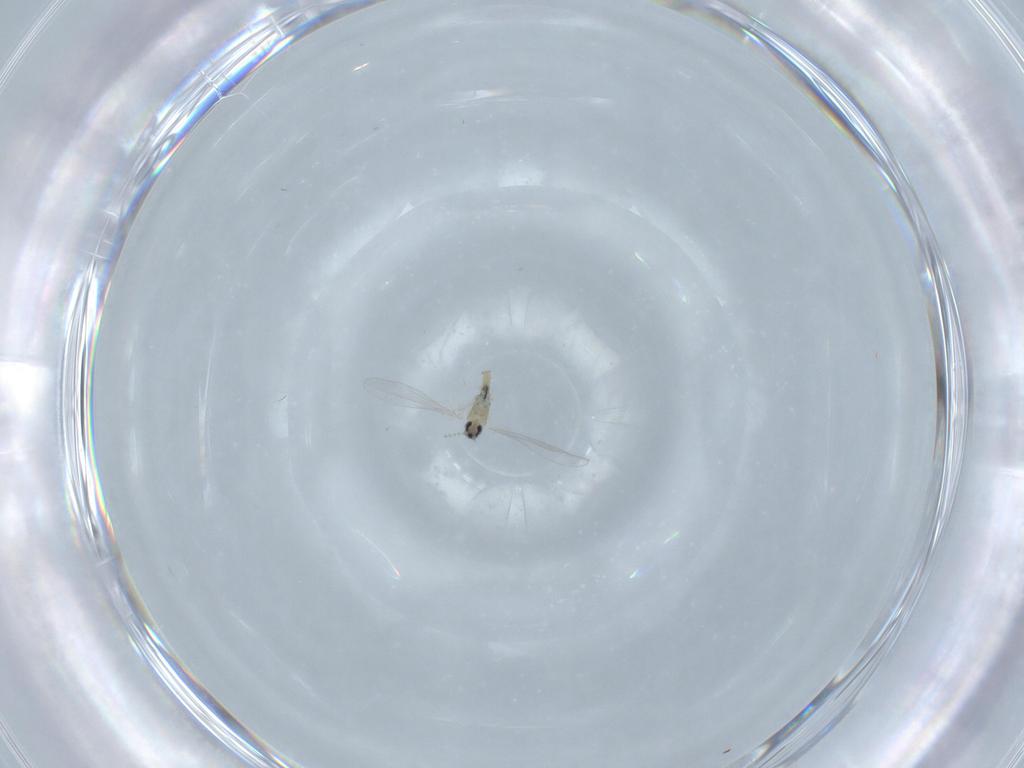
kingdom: Animalia
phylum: Arthropoda
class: Insecta
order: Diptera
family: Cecidomyiidae
